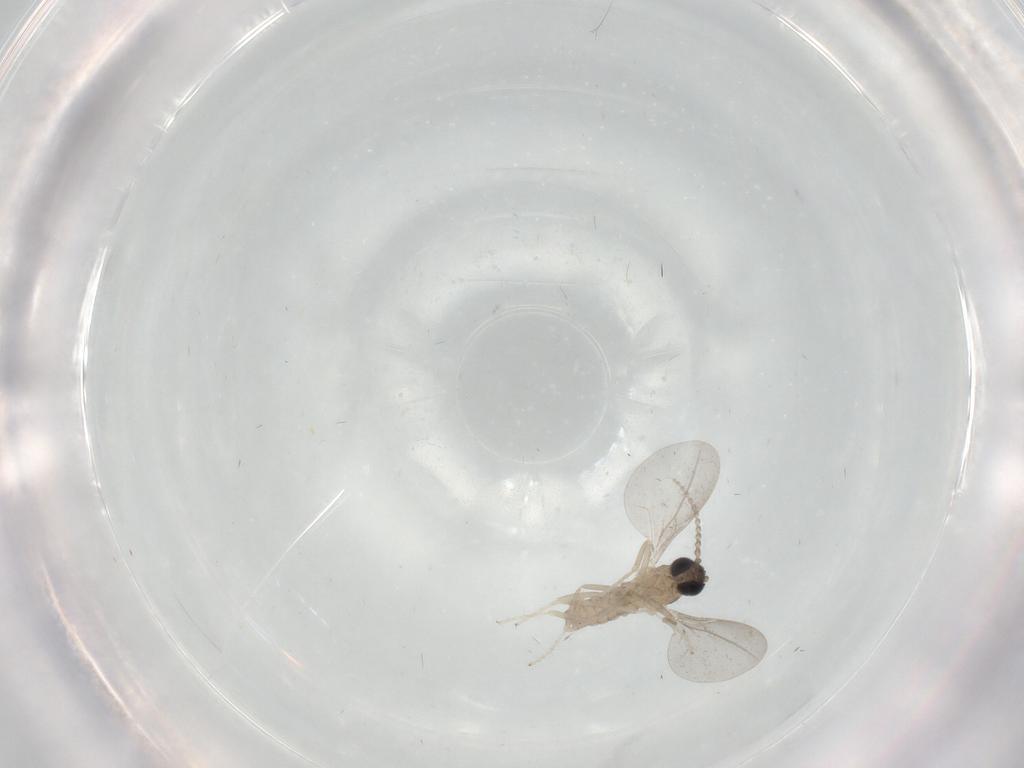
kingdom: Animalia
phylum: Arthropoda
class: Insecta
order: Diptera
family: Cecidomyiidae
